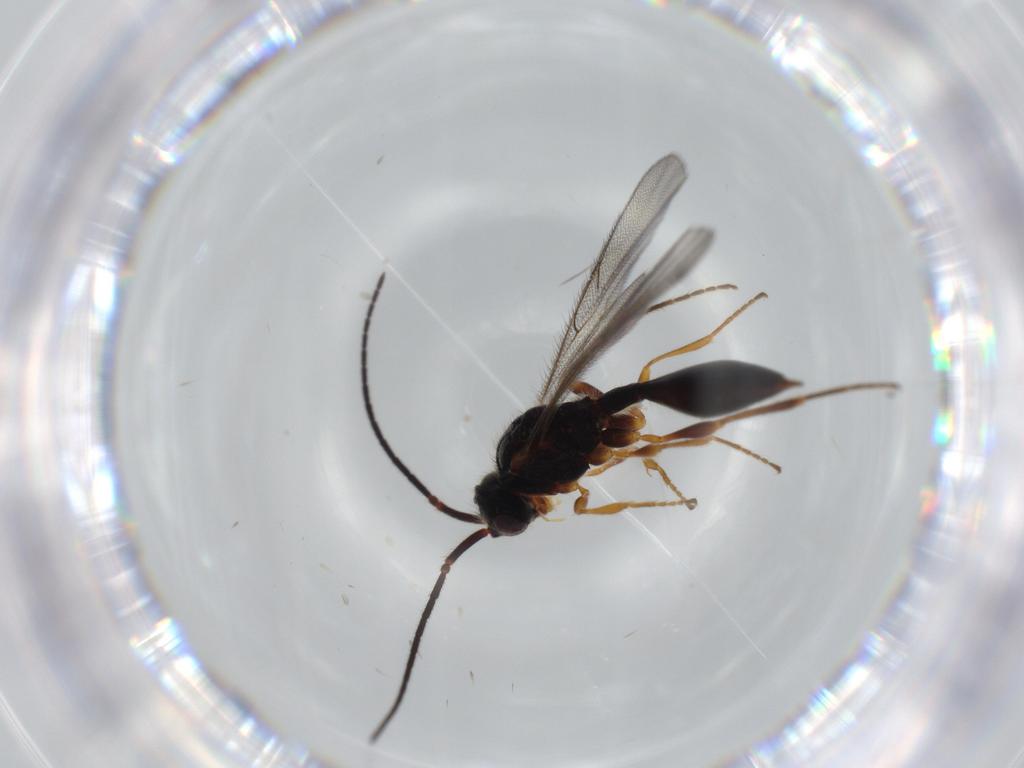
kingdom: Animalia
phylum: Arthropoda
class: Insecta
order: Hymenoptera
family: Diapriidae
